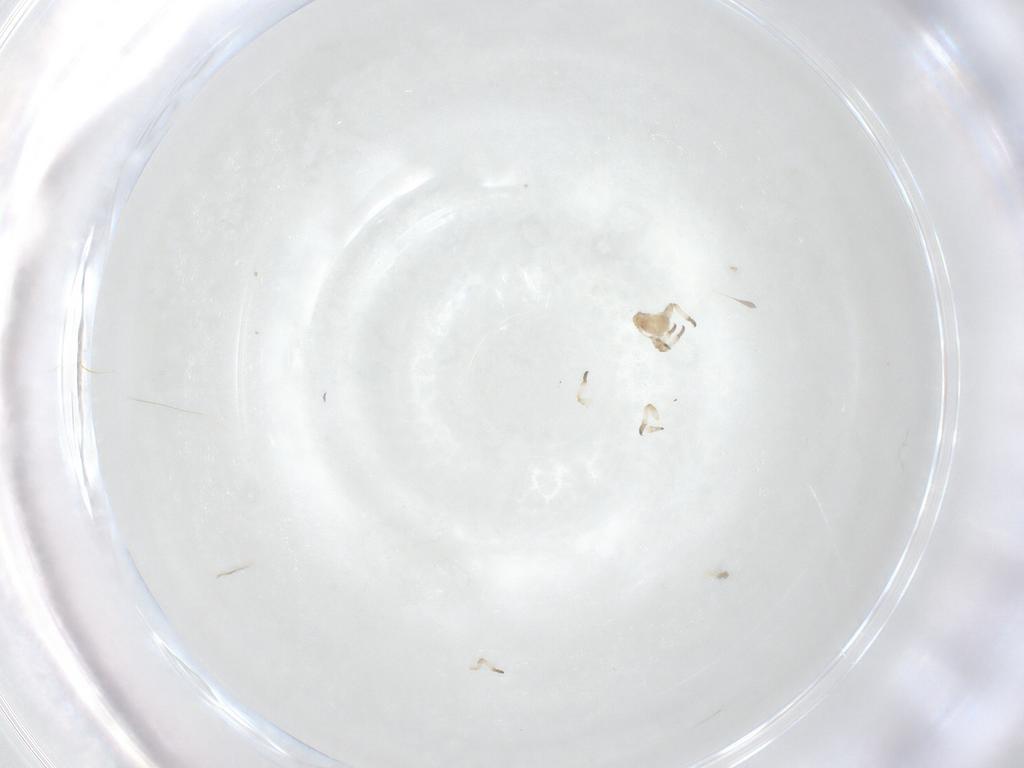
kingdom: Animalia
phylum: Arthropoda
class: Insecta
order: Hemiptera
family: Aphididae
